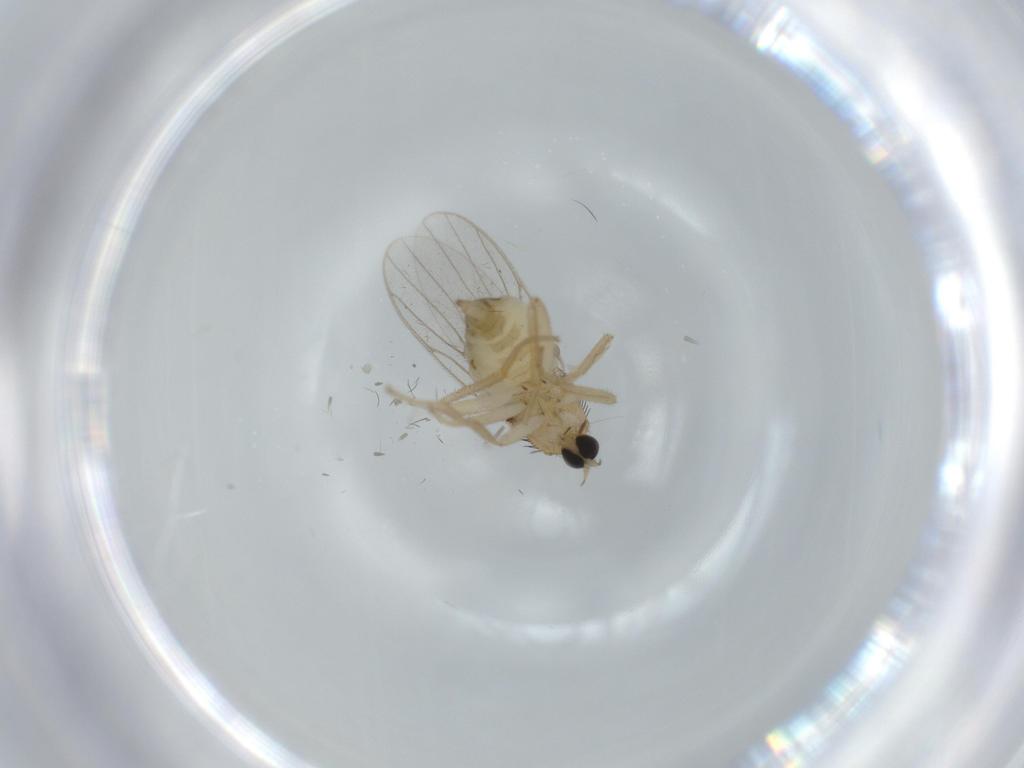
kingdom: Animalia
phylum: Arthropoda
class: Insecta
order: Diptera
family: Hybotidae
